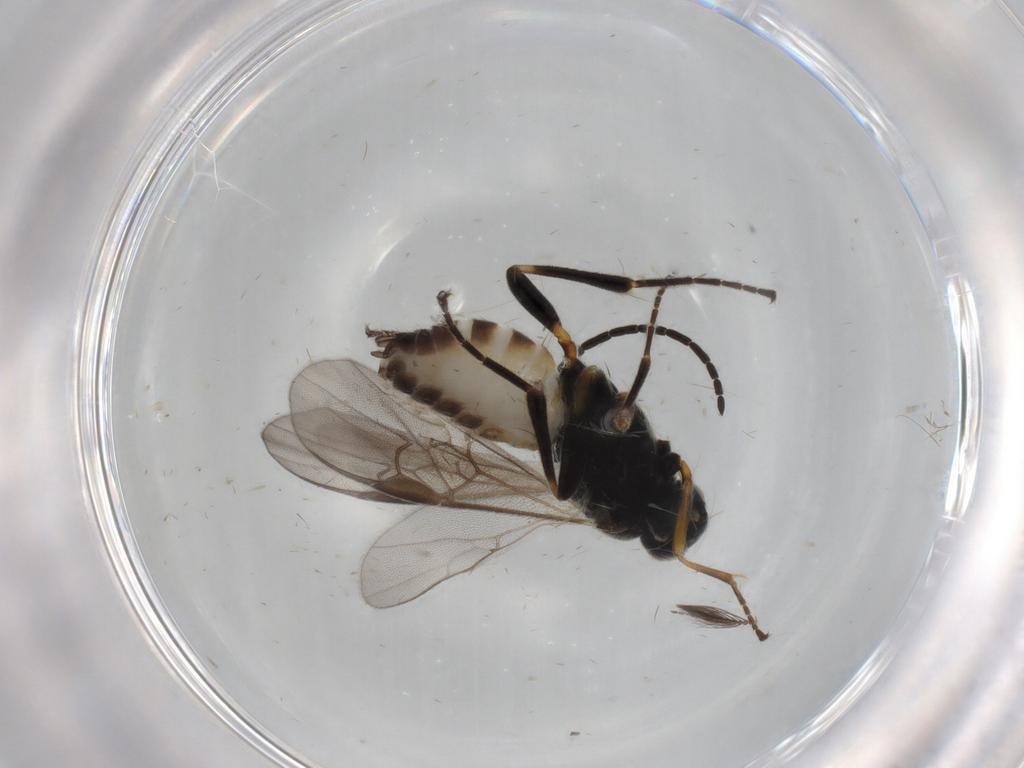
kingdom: Animalia
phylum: Arthropoda
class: Insecta
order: Hymenoptera
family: Braconidae
